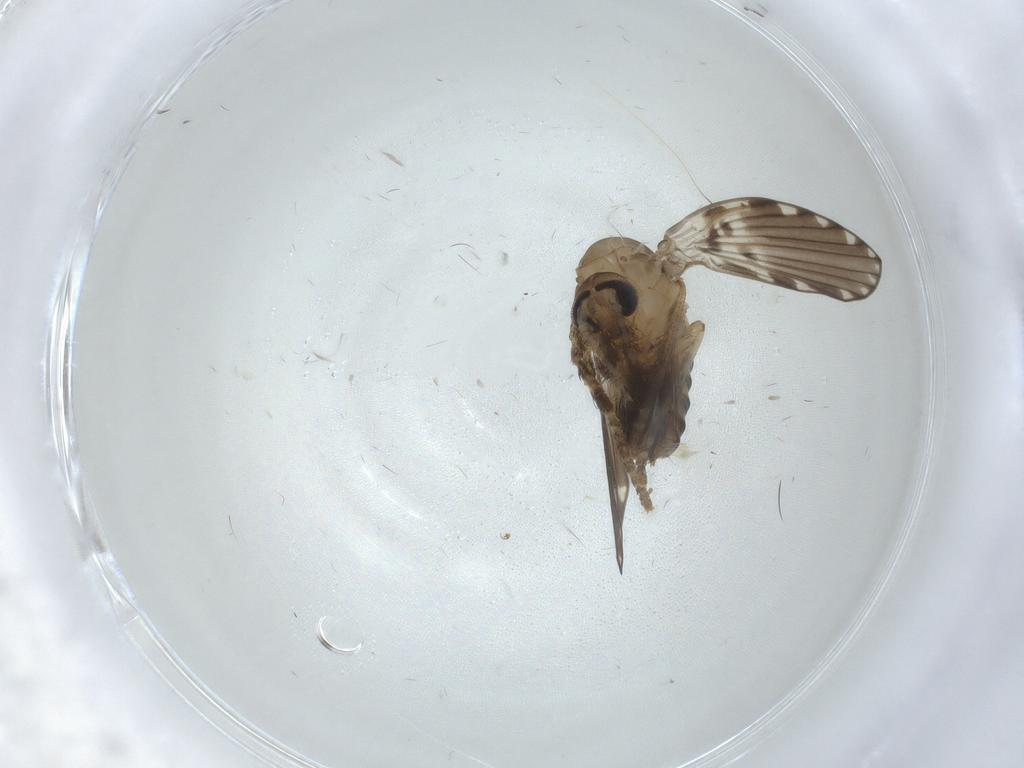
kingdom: Animalia
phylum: Arthropoda
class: Insecta
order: Diptera
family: Psychodidae
